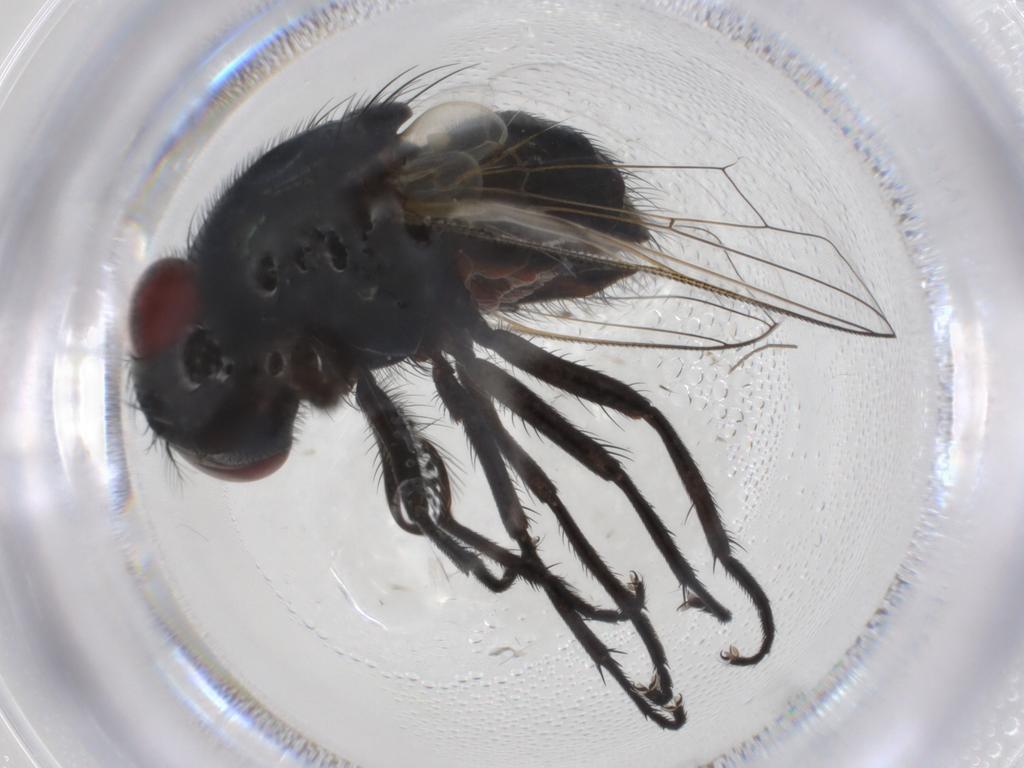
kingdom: Animalia
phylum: Arthropoda
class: Insecta
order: Diptera
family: Muscidae
